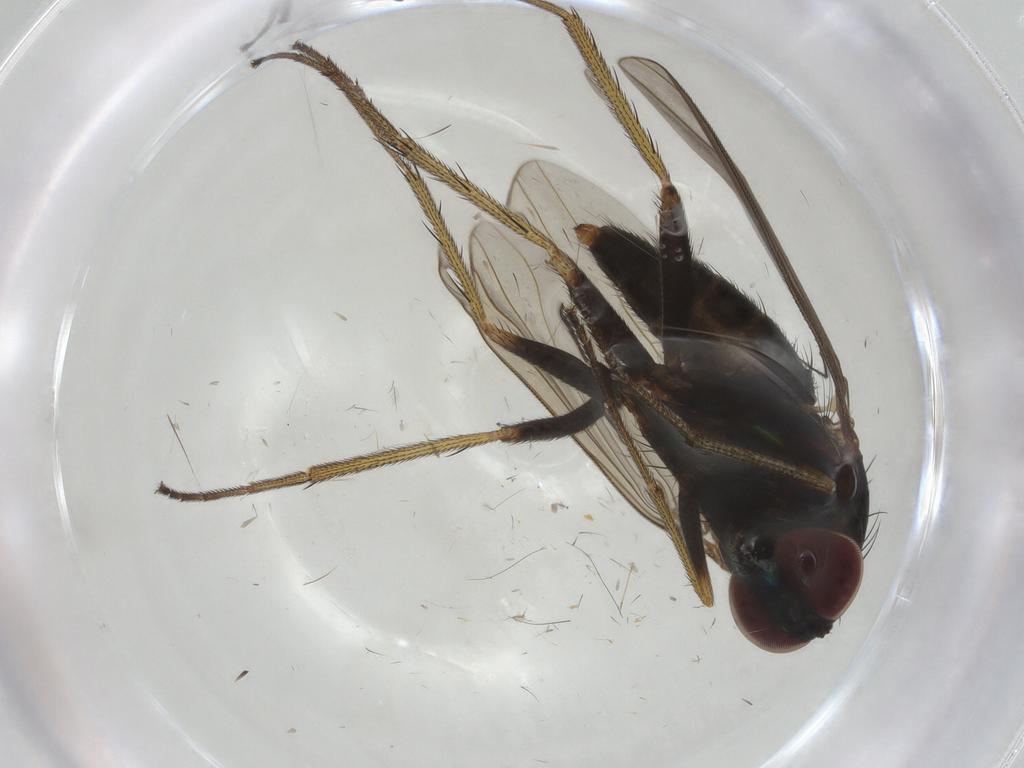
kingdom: Animalia
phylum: Arthropoda
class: Insecta
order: Diptera
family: Dolichopodidae
